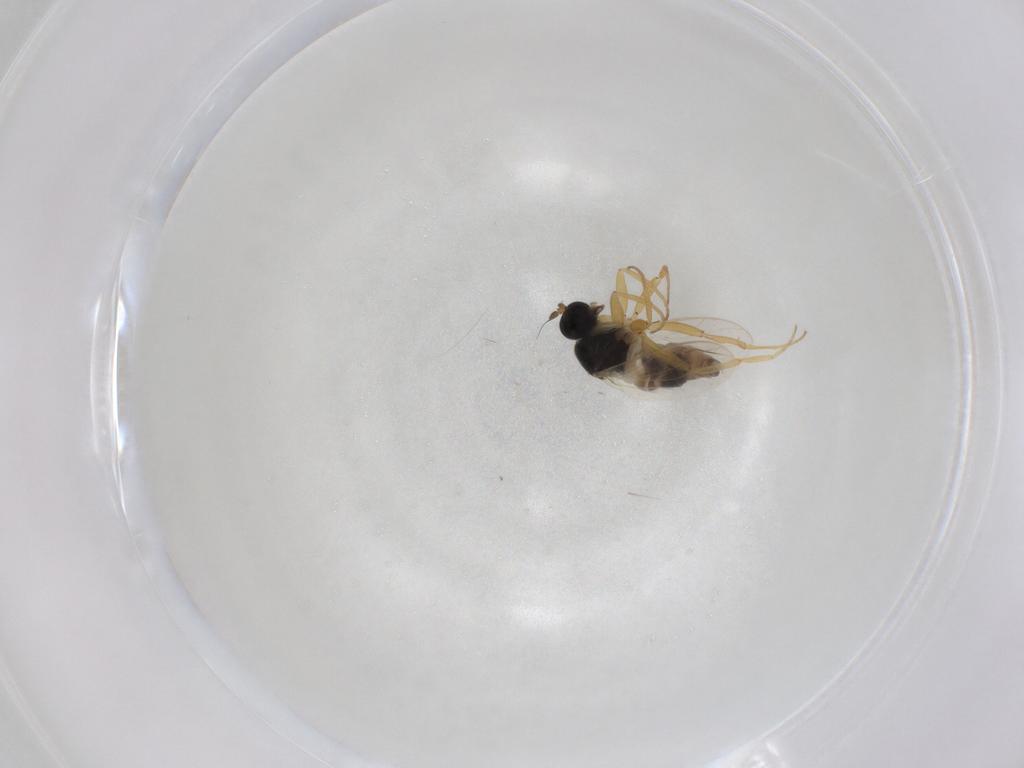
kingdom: Animalia
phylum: Arthropoda
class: Insecta
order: Diptera
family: Hybotidae
